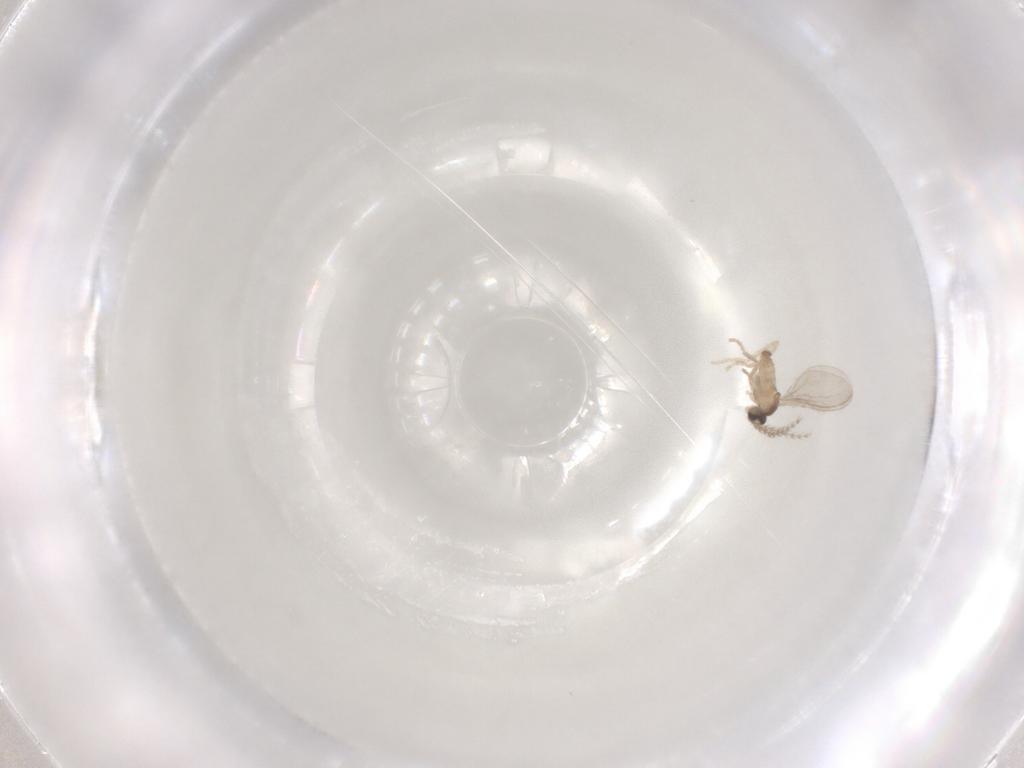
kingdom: Animalia
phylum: Arthropoda
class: Insecta
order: Diptera
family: Cecidomyiidae
